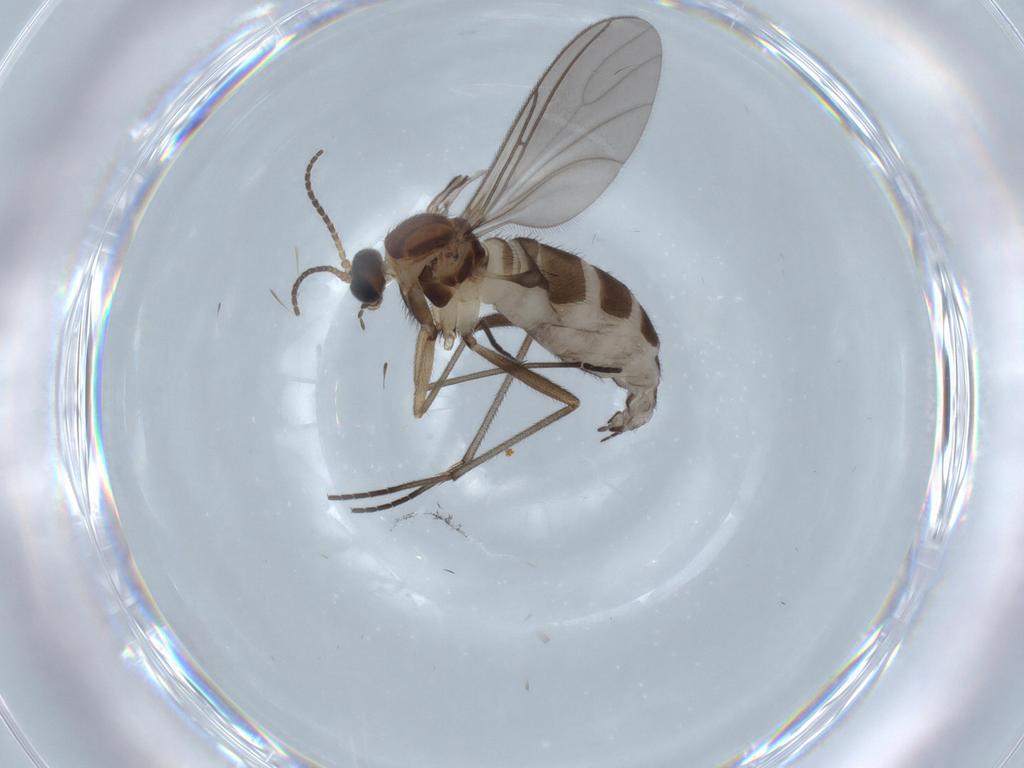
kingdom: Animalia
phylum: Arthropoda
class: Insecta
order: Diptera
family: Sciaridae
